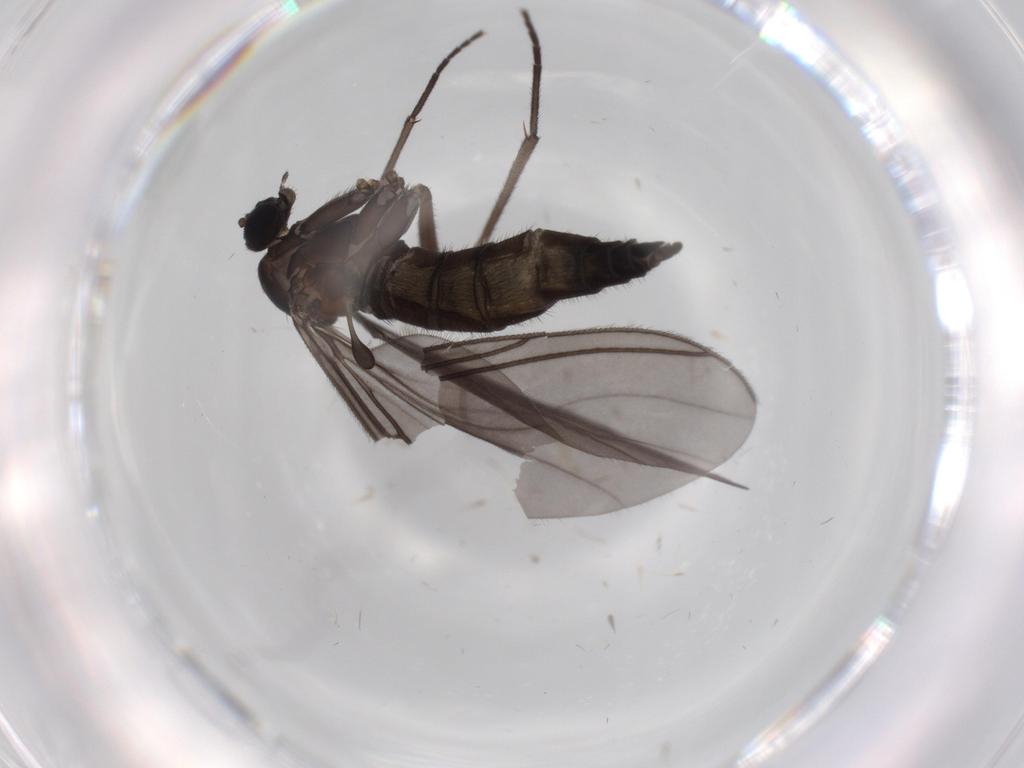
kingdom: Animalia
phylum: Arthropoda
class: Insecta
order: Diptera
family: Sciaridae
